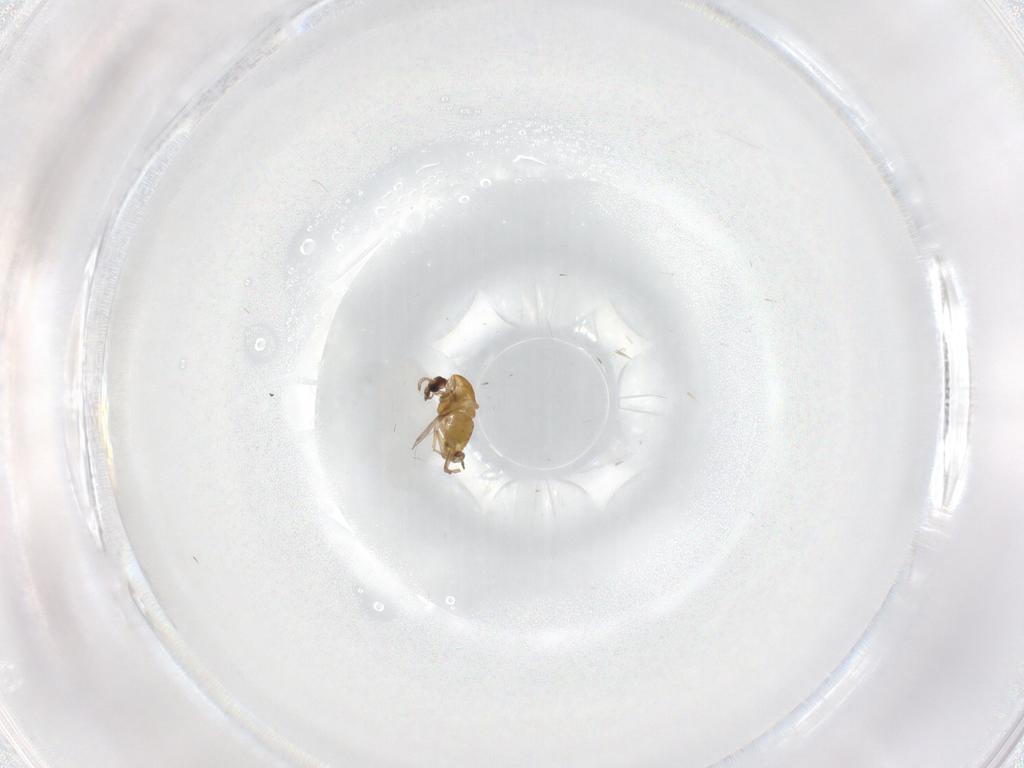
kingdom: Animalia
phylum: Arthropoda
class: Insecta
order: Diptera
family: Chironomidae
